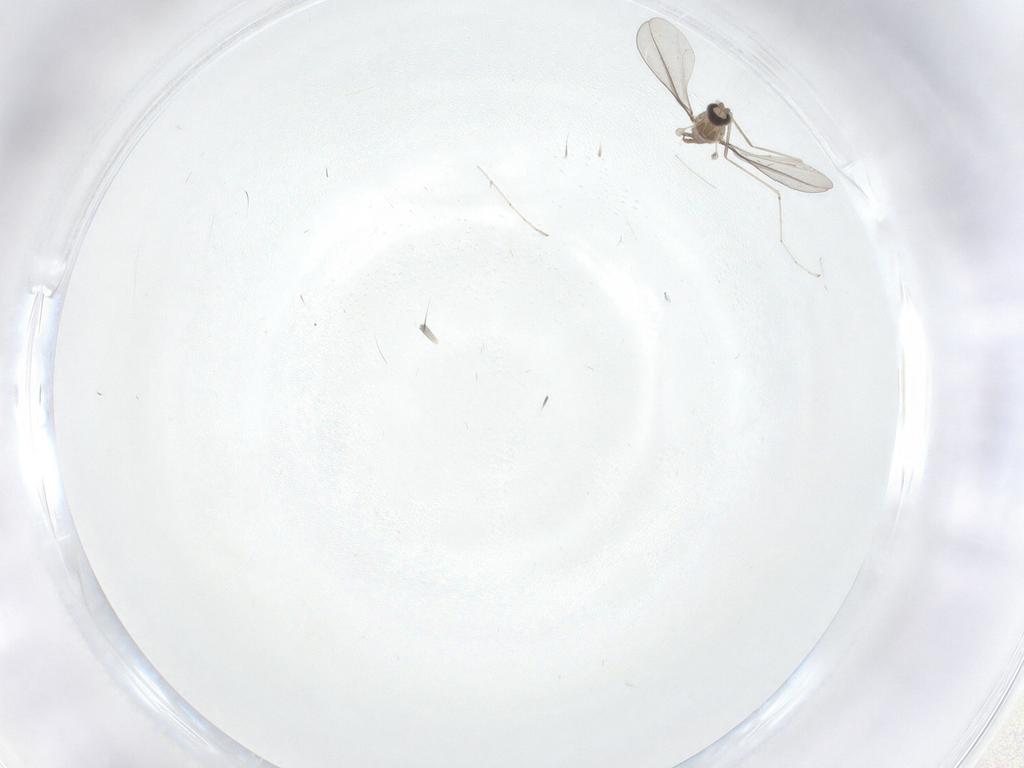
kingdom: Animalia
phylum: Arthropoda
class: Insecta
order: Diptera
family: Cecidomyiidae
